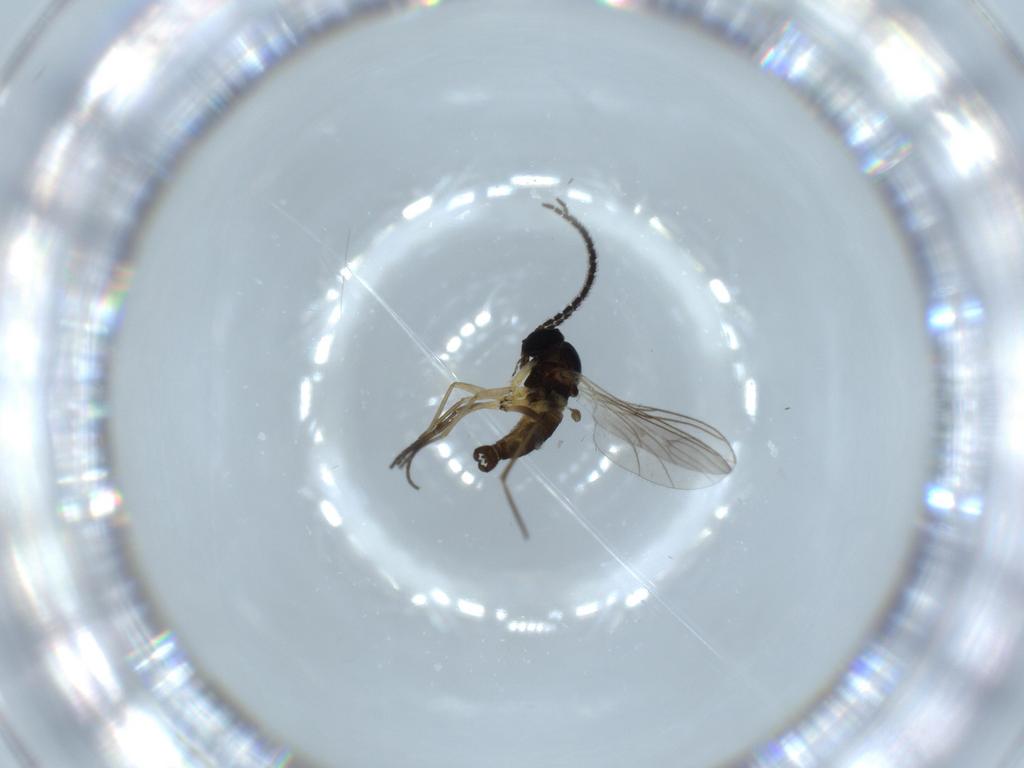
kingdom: Animalia
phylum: Arthropoda
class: Insecta
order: Diptera
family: Sciaridae
